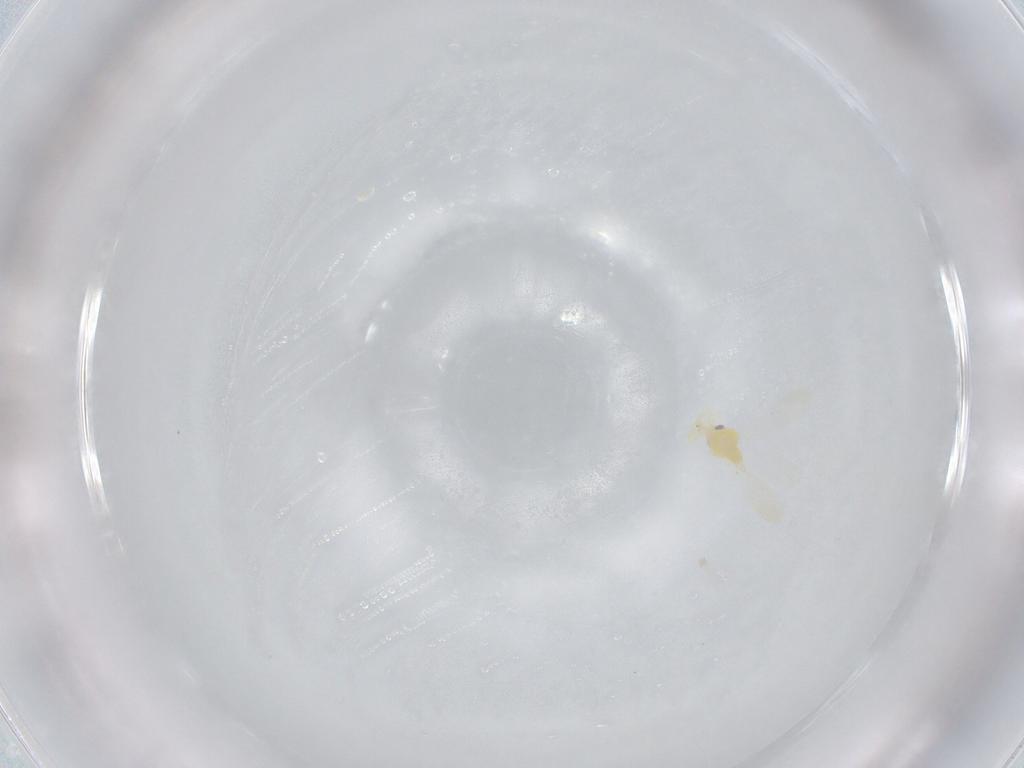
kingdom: Animalia
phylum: Arthropoda
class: Insecta
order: Hemiptera
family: Aleyrodidae
